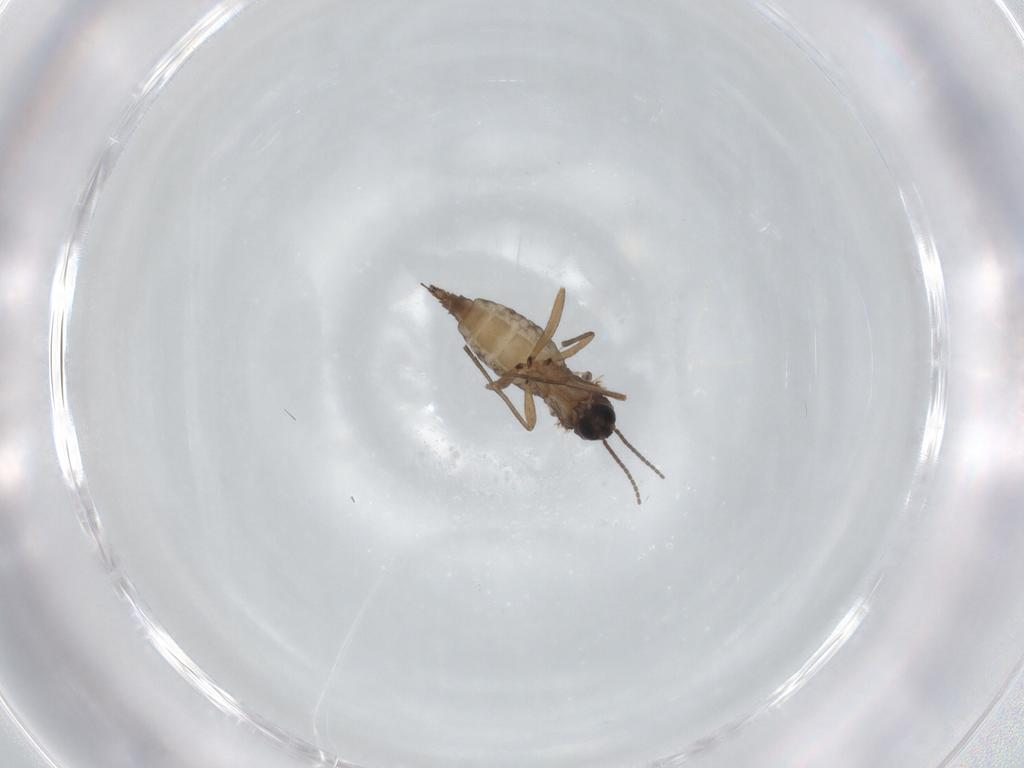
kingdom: Animalia
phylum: Arthropoda
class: Insecta
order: Diptera
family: Sciaridae
